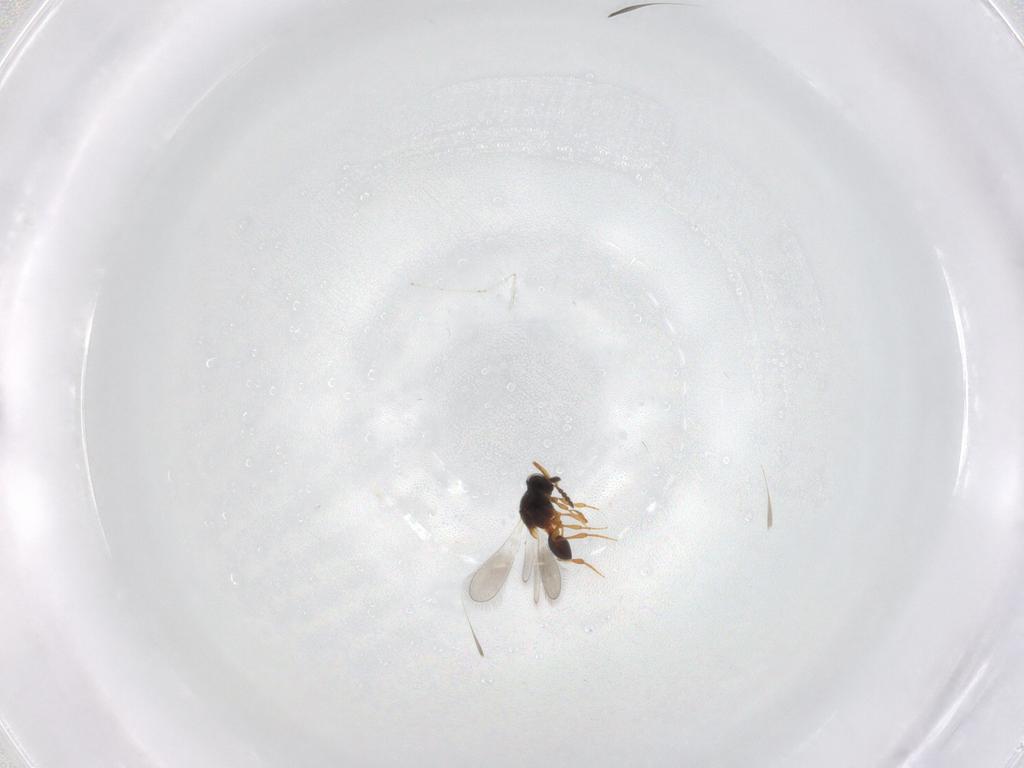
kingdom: Animalia
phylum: Arthropoda
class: Insecta
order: Hymenoptera
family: Platygastridae
